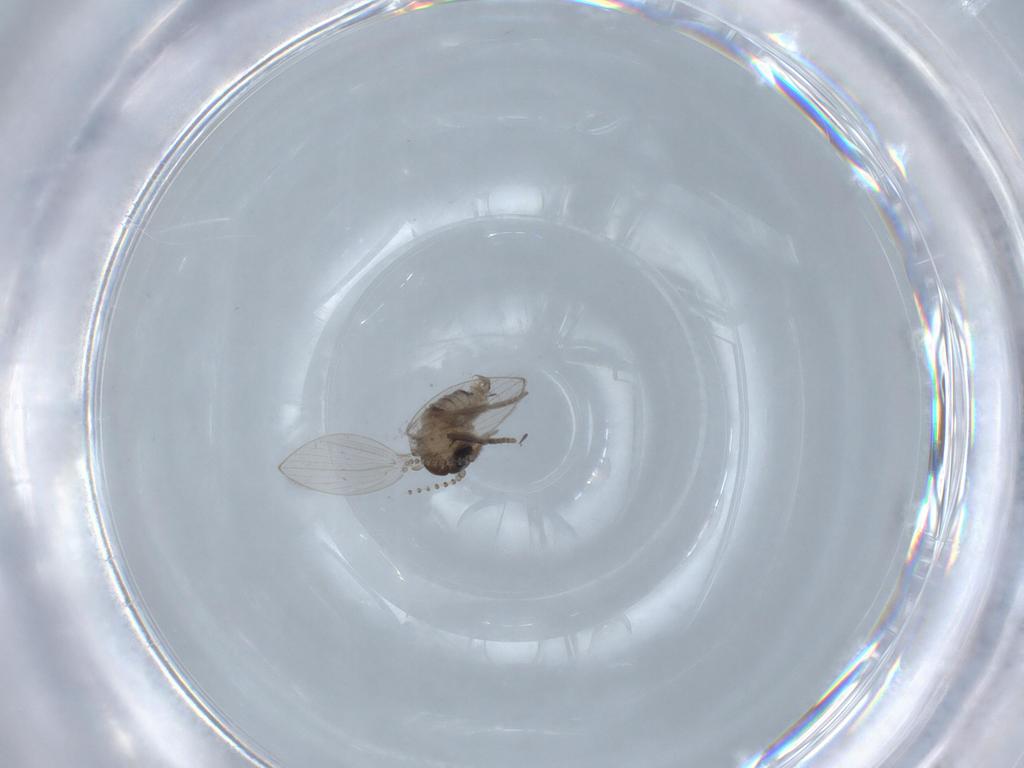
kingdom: Animalia
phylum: Arthropoda
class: Insecta
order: Diptera
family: Psychodidae
